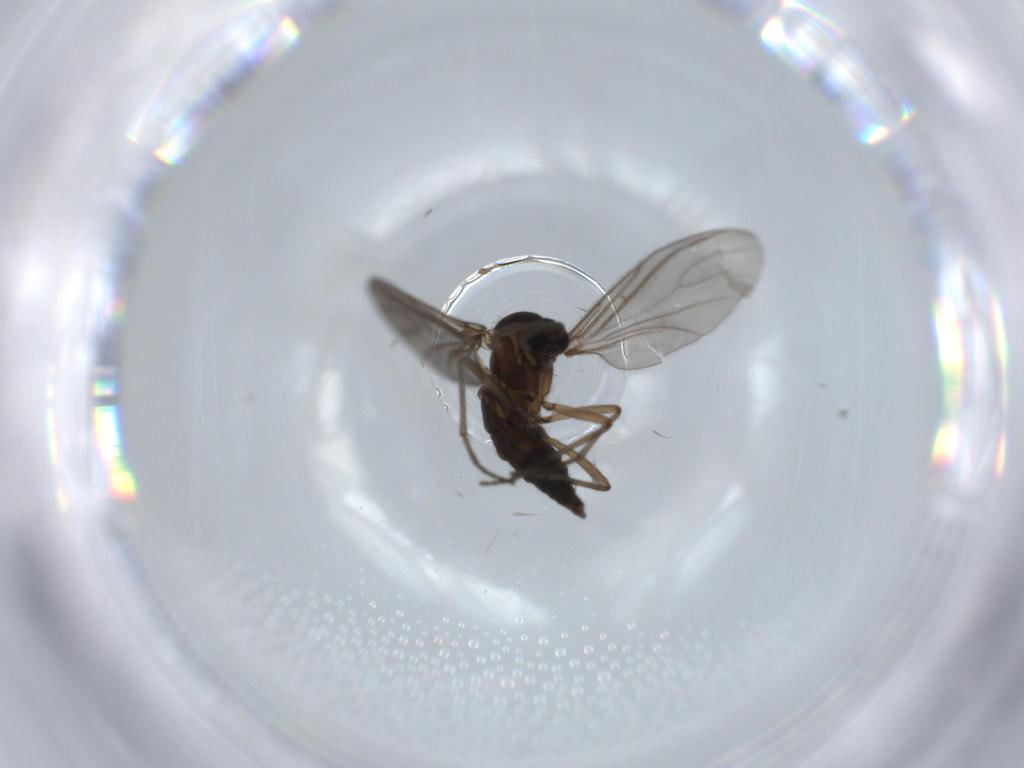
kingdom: Animalia
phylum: Arthropoda
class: Insecta
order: Diptera
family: Sciaridae
